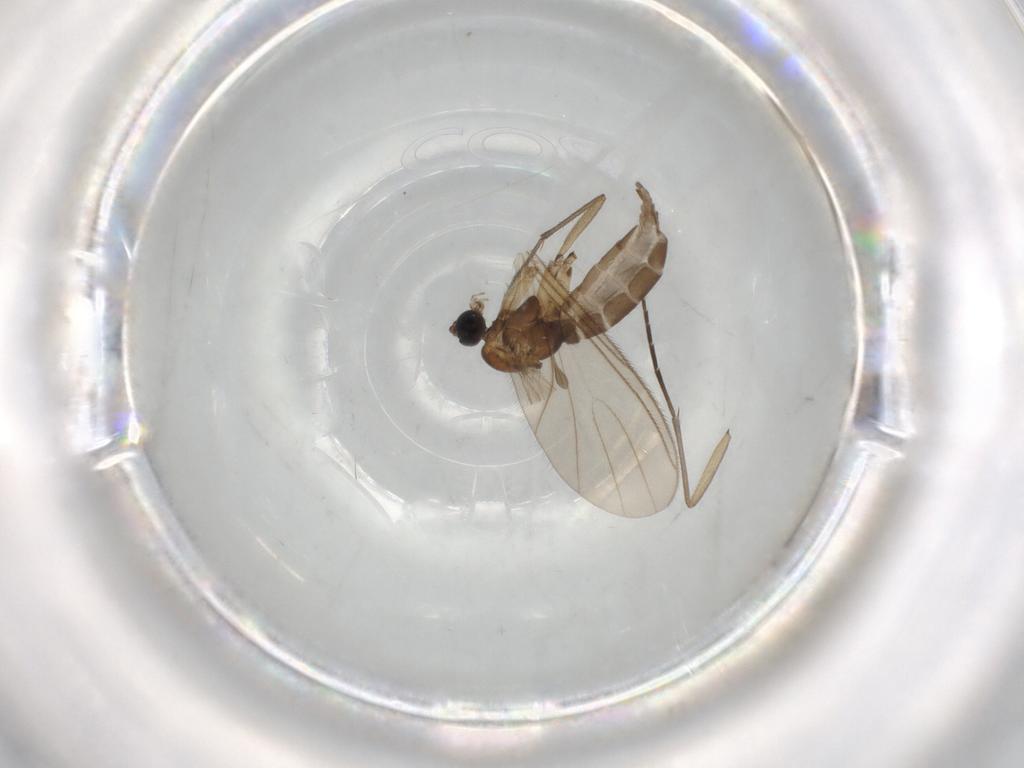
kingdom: Animalia
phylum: Arthropoda
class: Insecta
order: Diptera
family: Sciaridae
